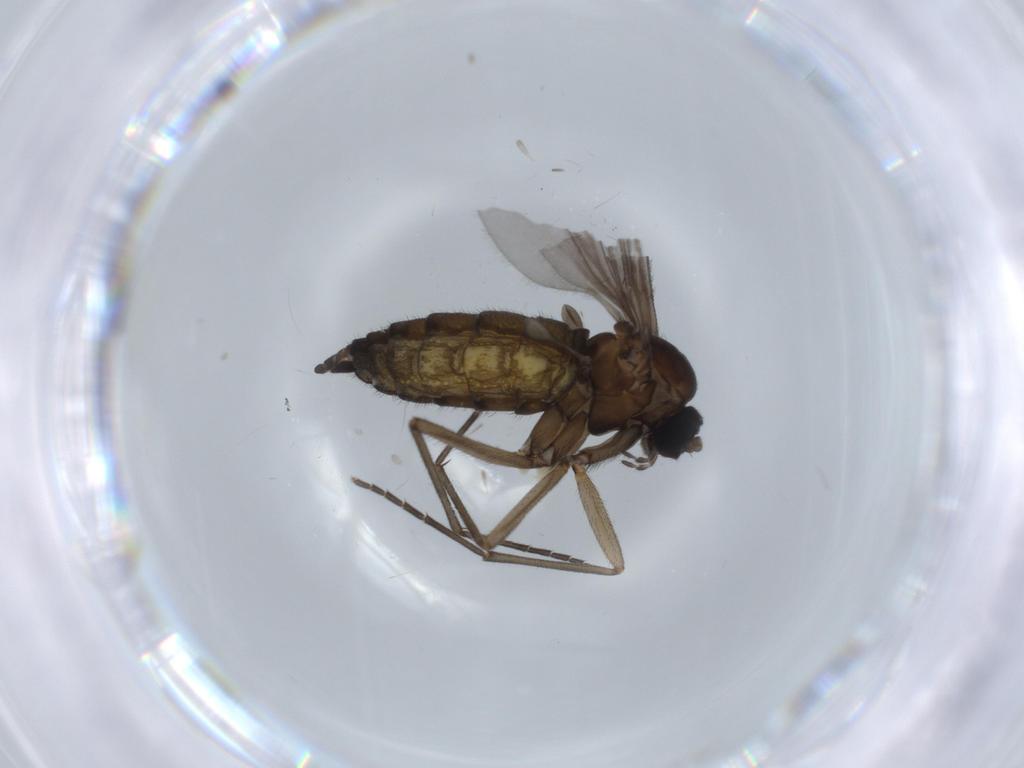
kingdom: Animalia
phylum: Arthropoda
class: Insecta
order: Diptera
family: Sciaridae
